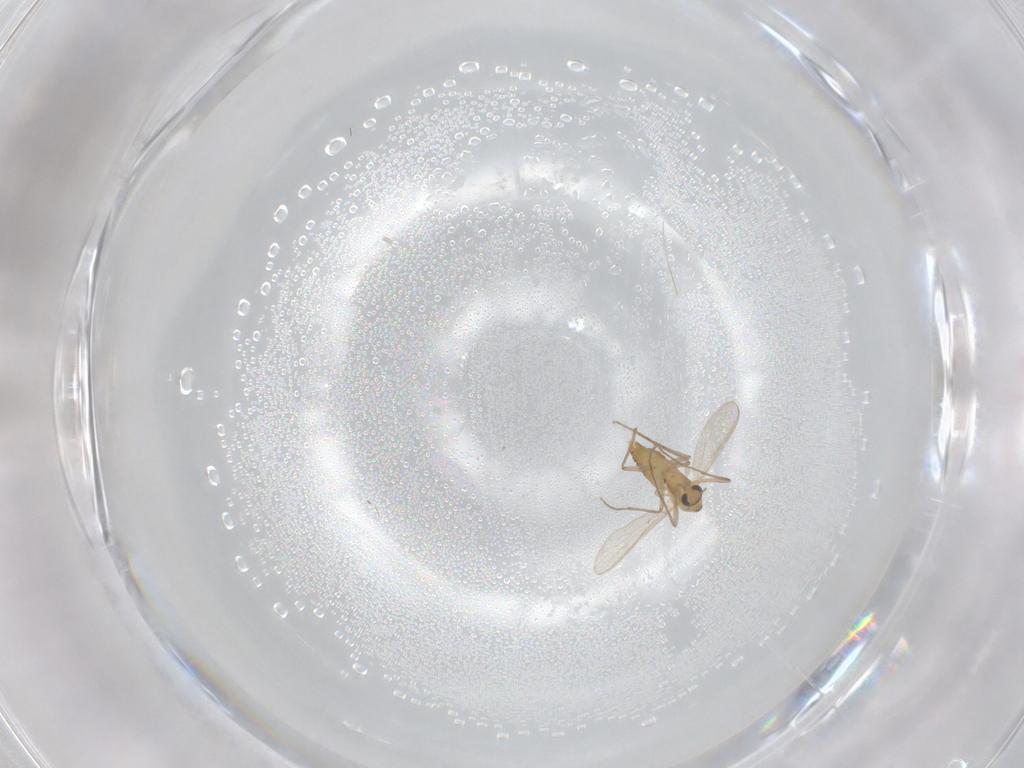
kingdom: Animalia
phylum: Arthropoda
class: Insecta
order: Diptera
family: Chironomidae
